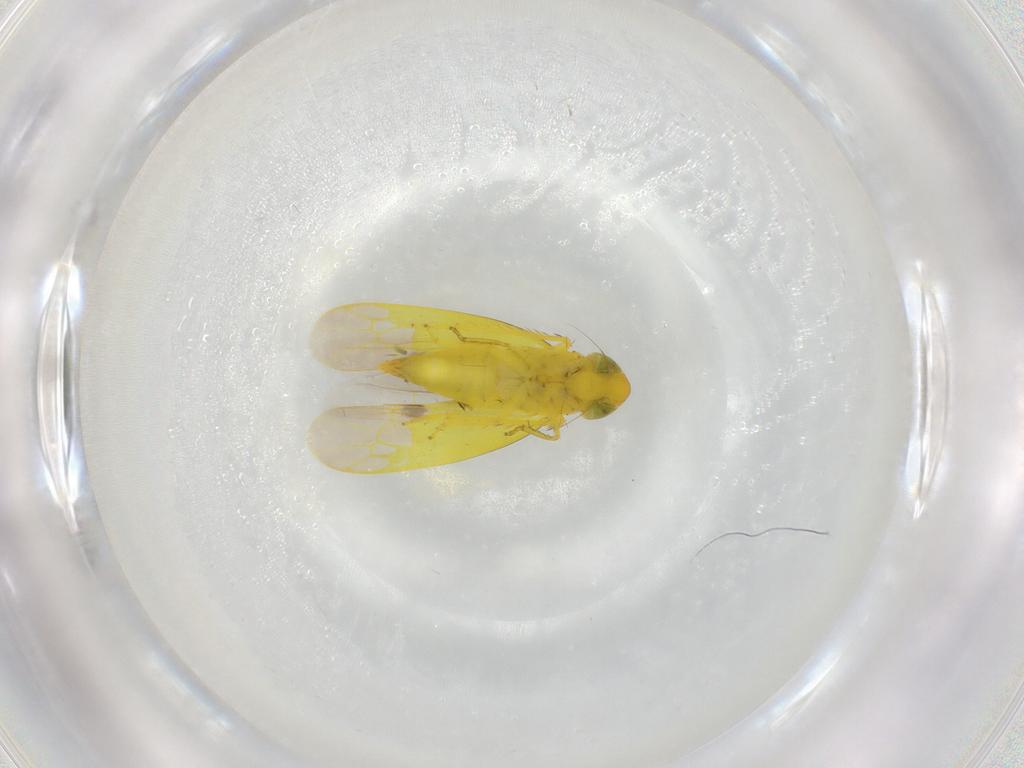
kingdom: Animalia
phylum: Arthropoda
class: Insecta
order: Hemiptera
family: Cicadellidae
